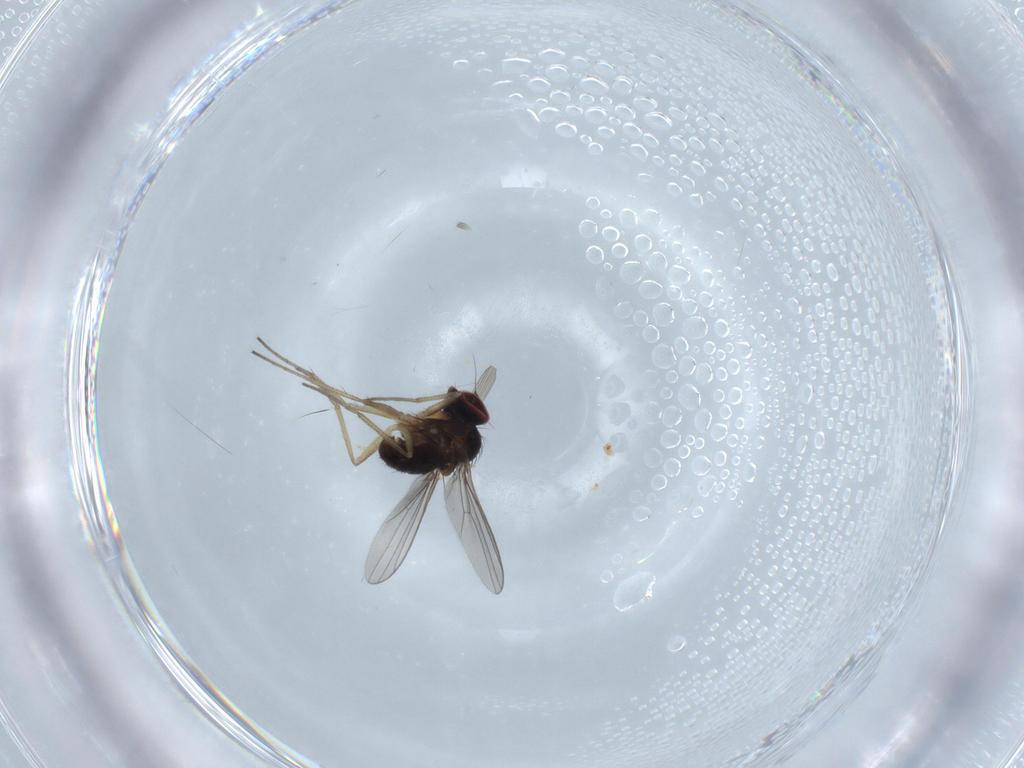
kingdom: Animalia
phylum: Arthropoda
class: Insecta
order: Diptera
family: Dolichopodidae
